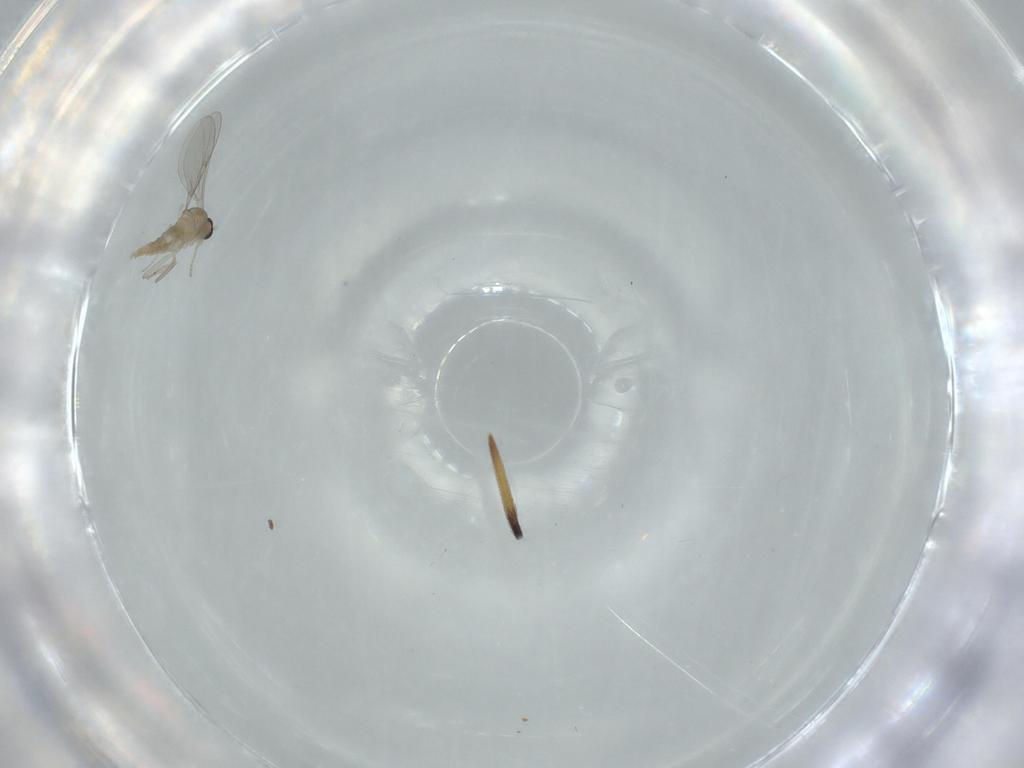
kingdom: Animalia
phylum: Arthropoda
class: Insecta
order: Diptera
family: Cecidomyiidae
